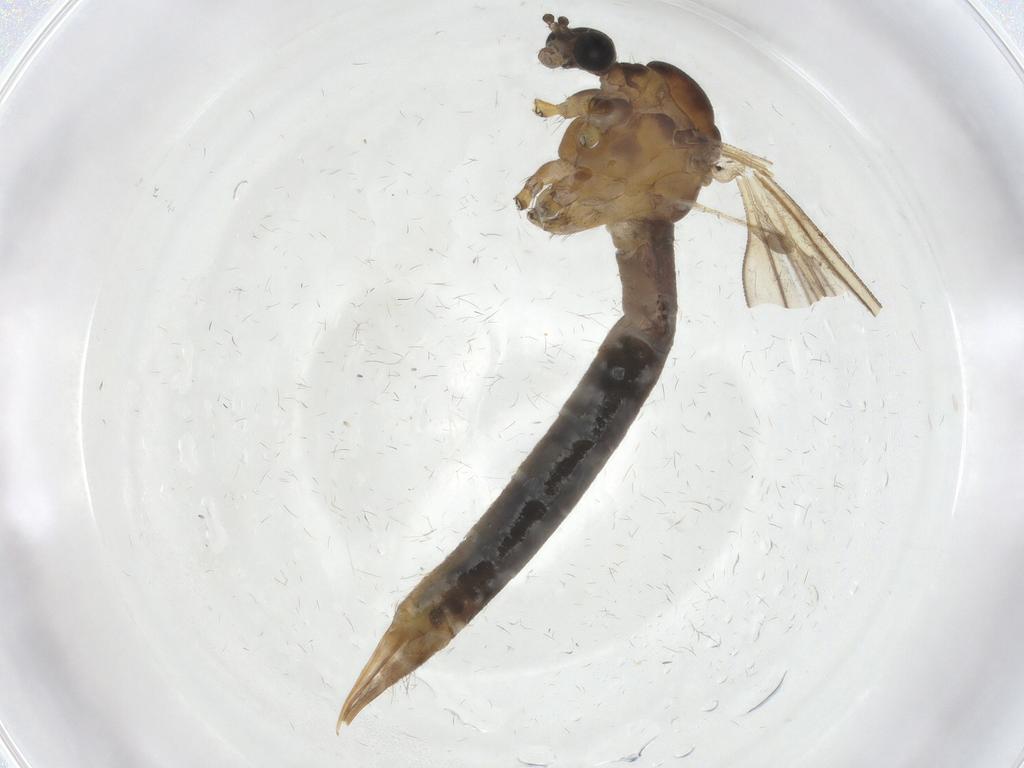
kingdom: Animalia
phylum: Arthropoda
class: Insecta
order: Diptera
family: Limoniidae
